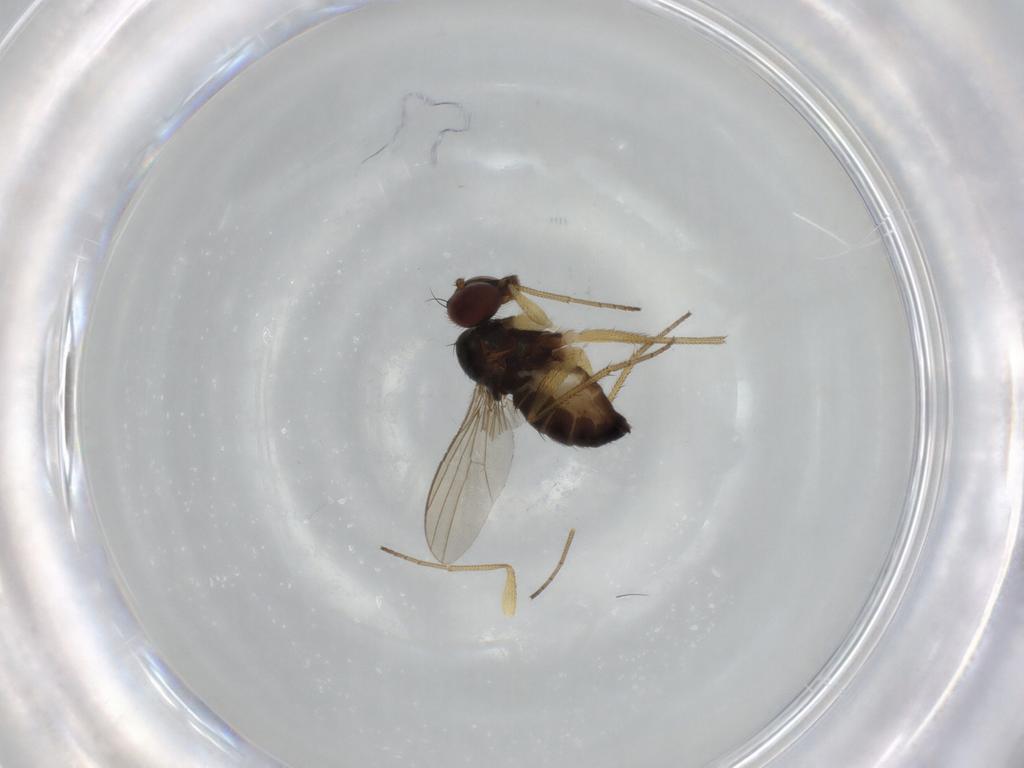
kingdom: Animalia
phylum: Arthropoda
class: Insecta
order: Diptera
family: Dolichopodidae
